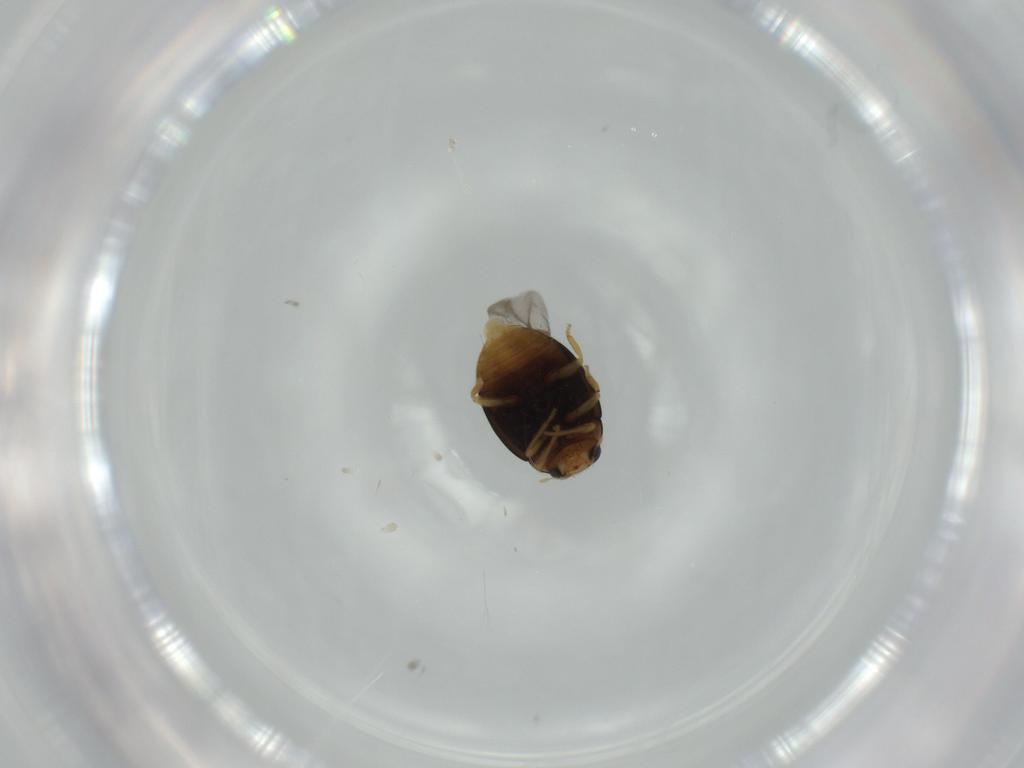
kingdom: Animalia
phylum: Arthropoda
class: Insecta
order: Coleoptera
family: Coccinellidae
